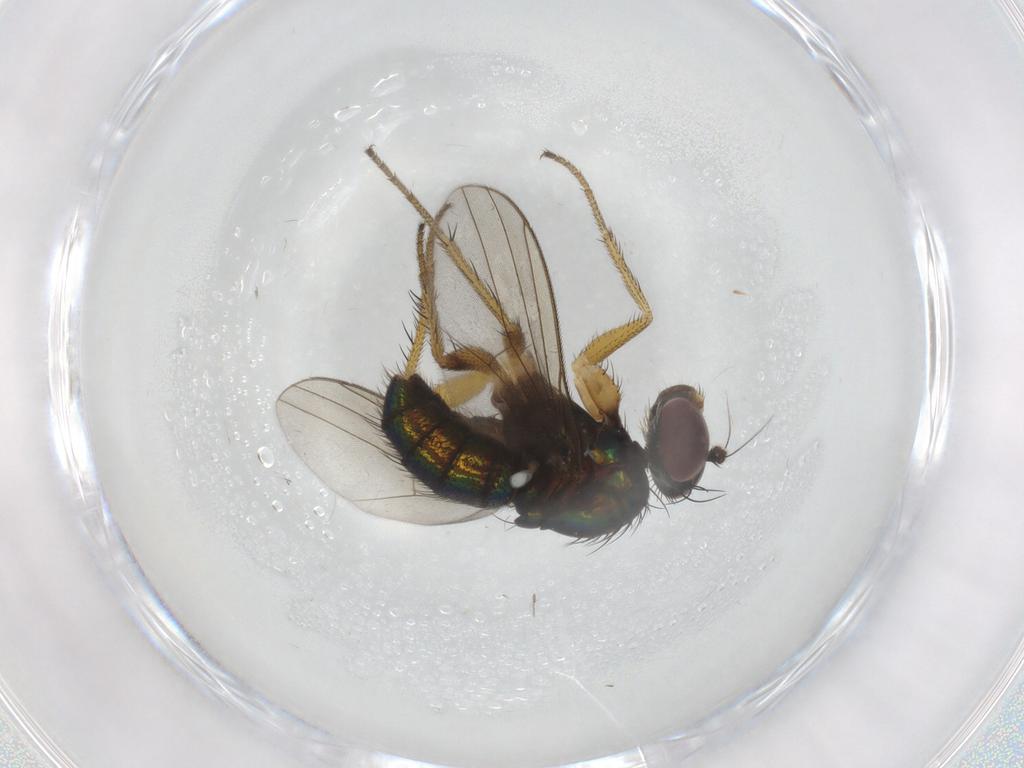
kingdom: Animalia
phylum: Arthropoda
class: Insecta
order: Diptera
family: Dolichopodidae
